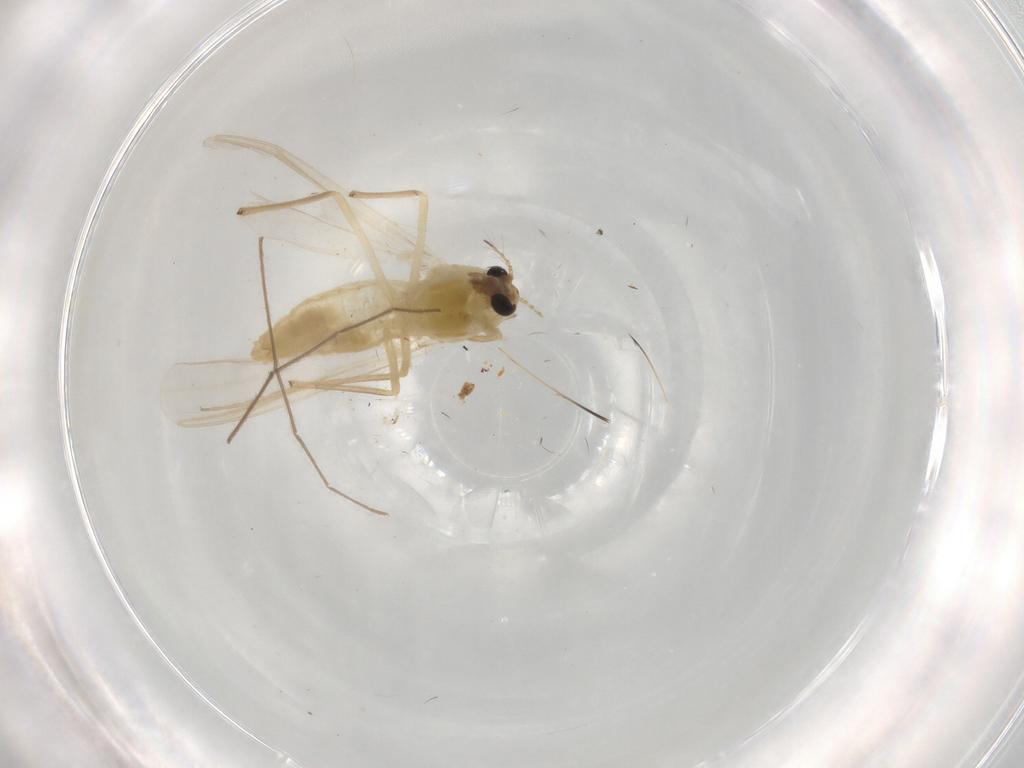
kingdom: Animalia
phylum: Arthropoda
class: Insecta
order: Diptera
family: Chironomidae
